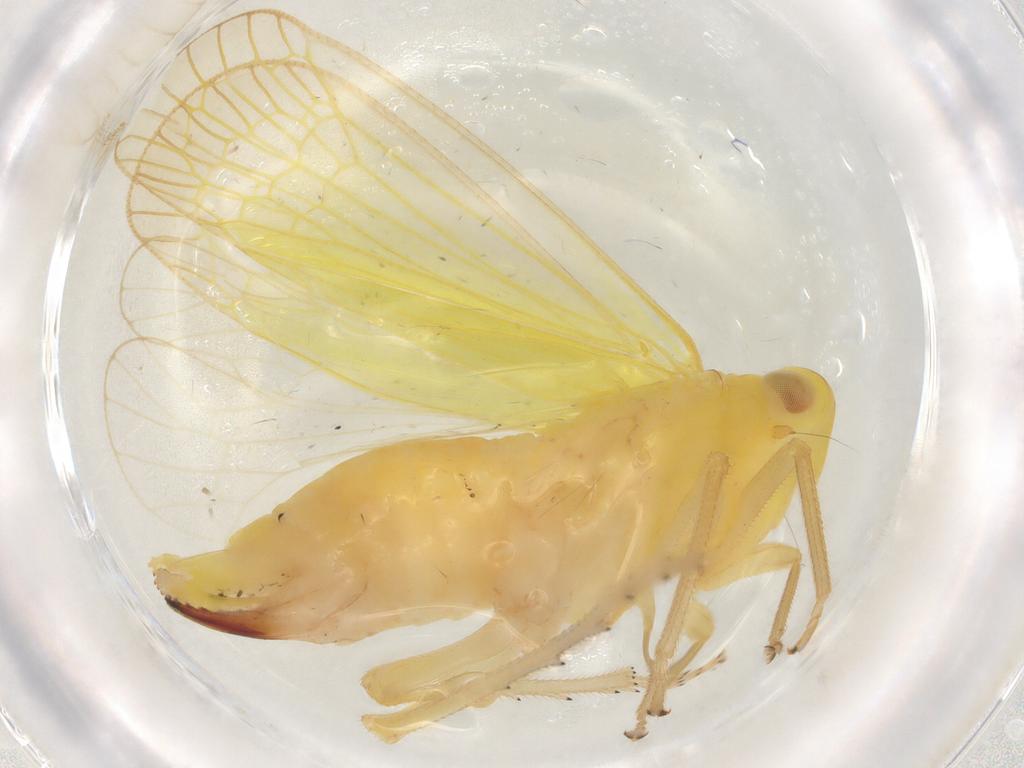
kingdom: Animalia
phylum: Arthropoda
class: Insecta
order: Hemiptera
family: Tropiduchidae
